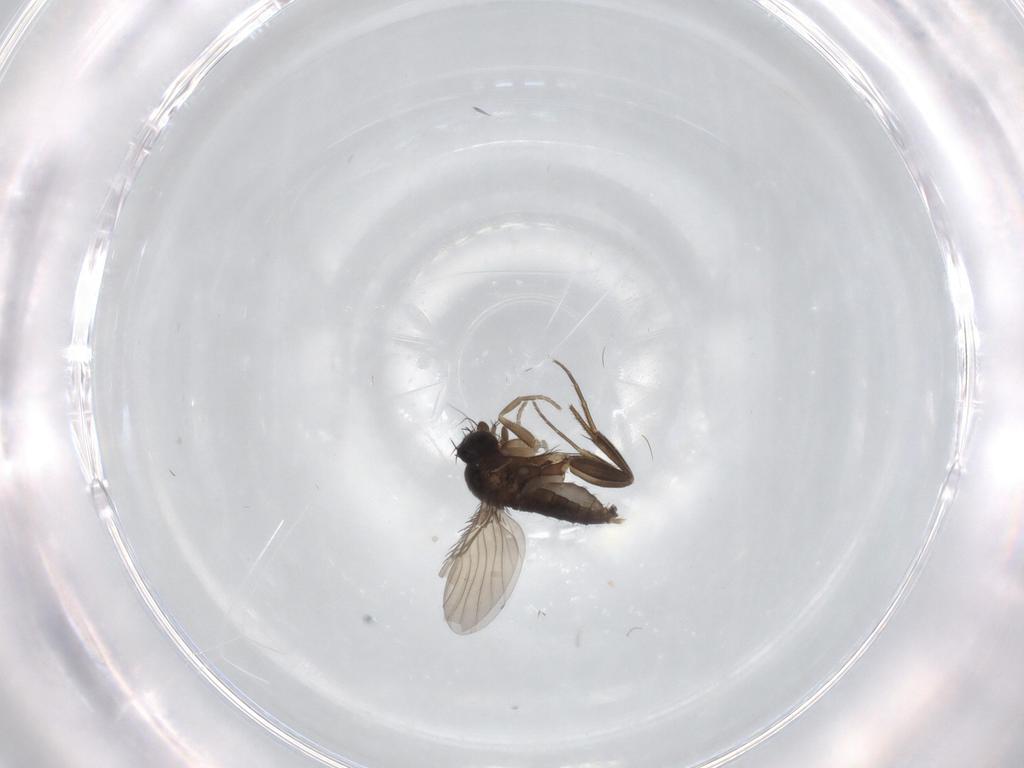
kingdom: Animalia
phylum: Arthropoda
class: Insecta
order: Diptera
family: Phoridae
